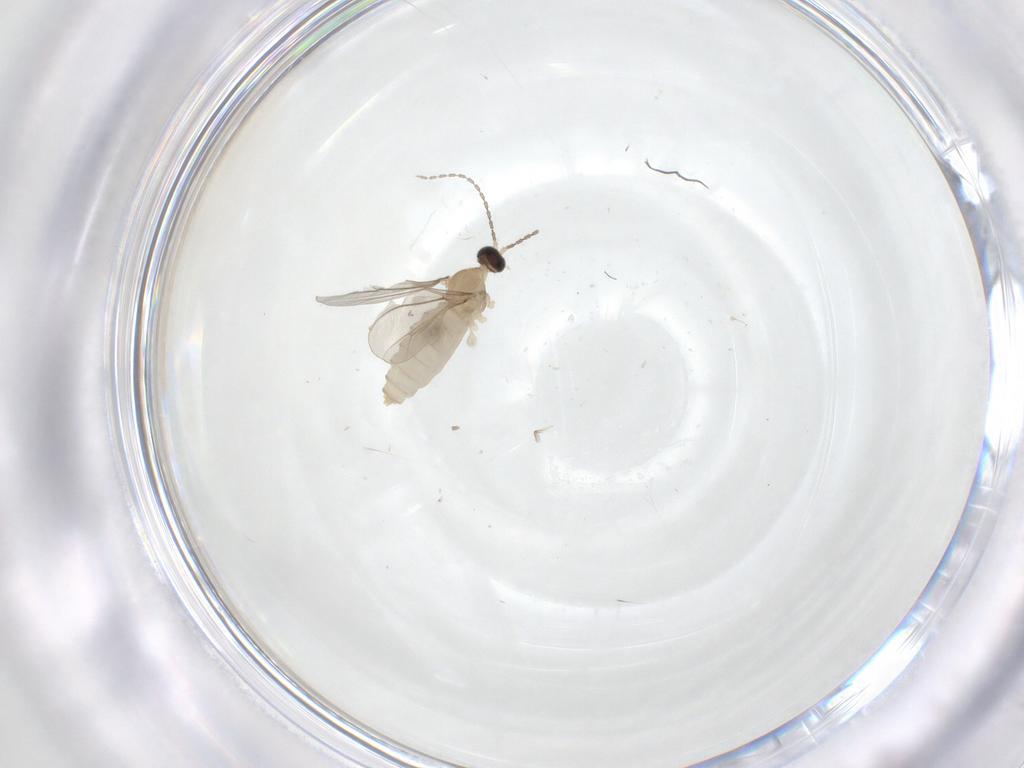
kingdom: Animalia
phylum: Arthropoda
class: Insecta
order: Diptera
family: Cecidomyiidae
